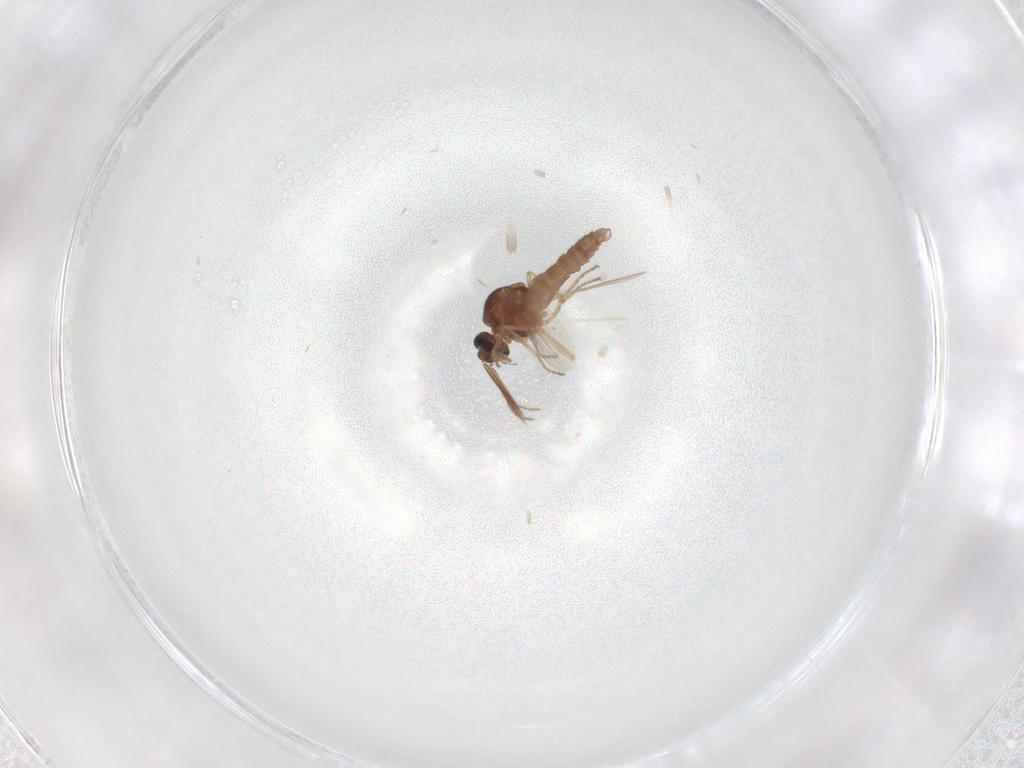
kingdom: Animalia
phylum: Arthropoda
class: Insecta
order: Diptera
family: Ceratopogonidae
